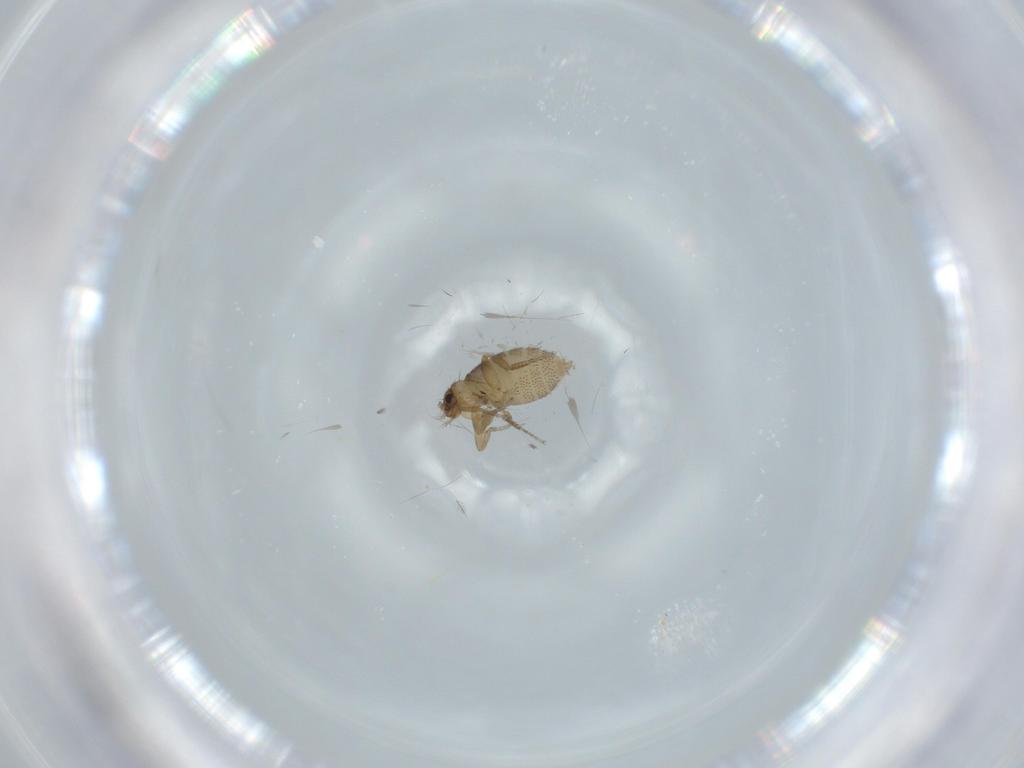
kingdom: Animalia
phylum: Arthropoda
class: Insecta
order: Diptera
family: Phoridae
